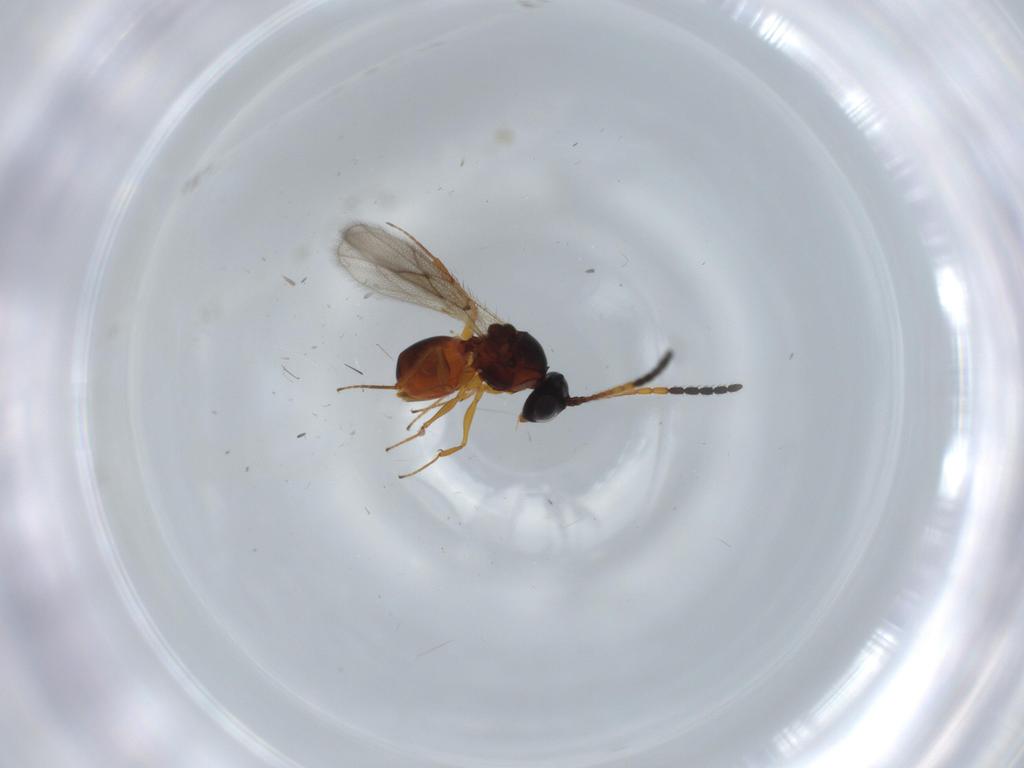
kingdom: Animalia
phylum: Arthropoda
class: Insecta
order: Hymenoptera
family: Figitidae
